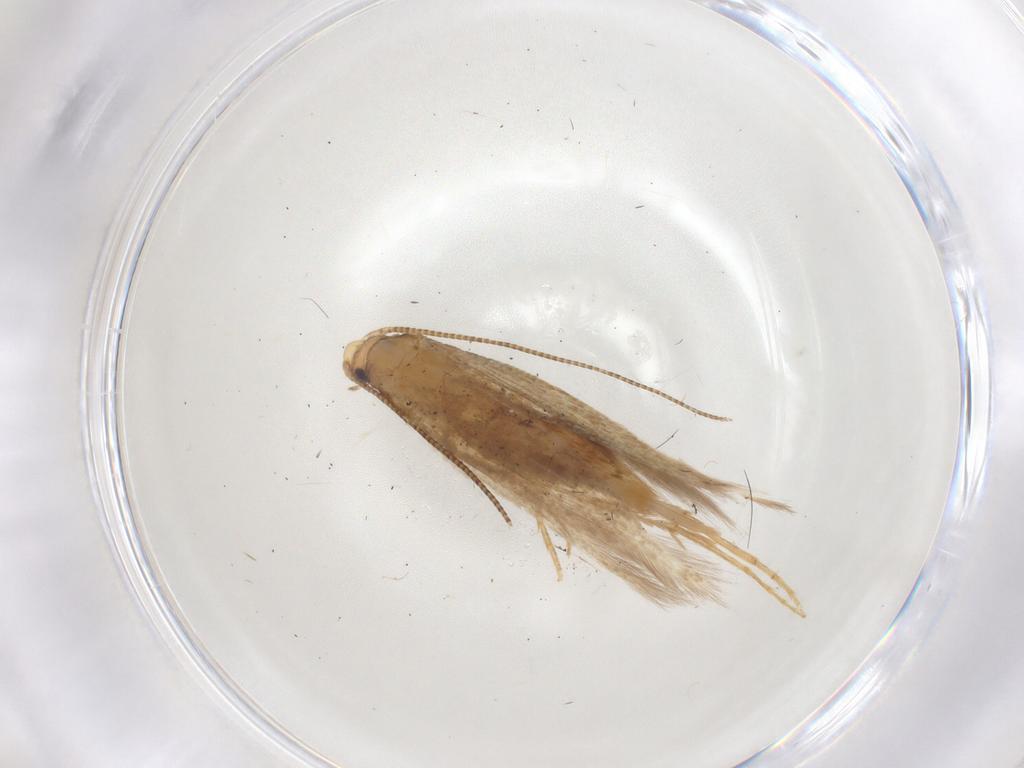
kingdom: Animalia
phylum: Arthropoda
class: Insecta
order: Lepidoptera
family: Tineidae
